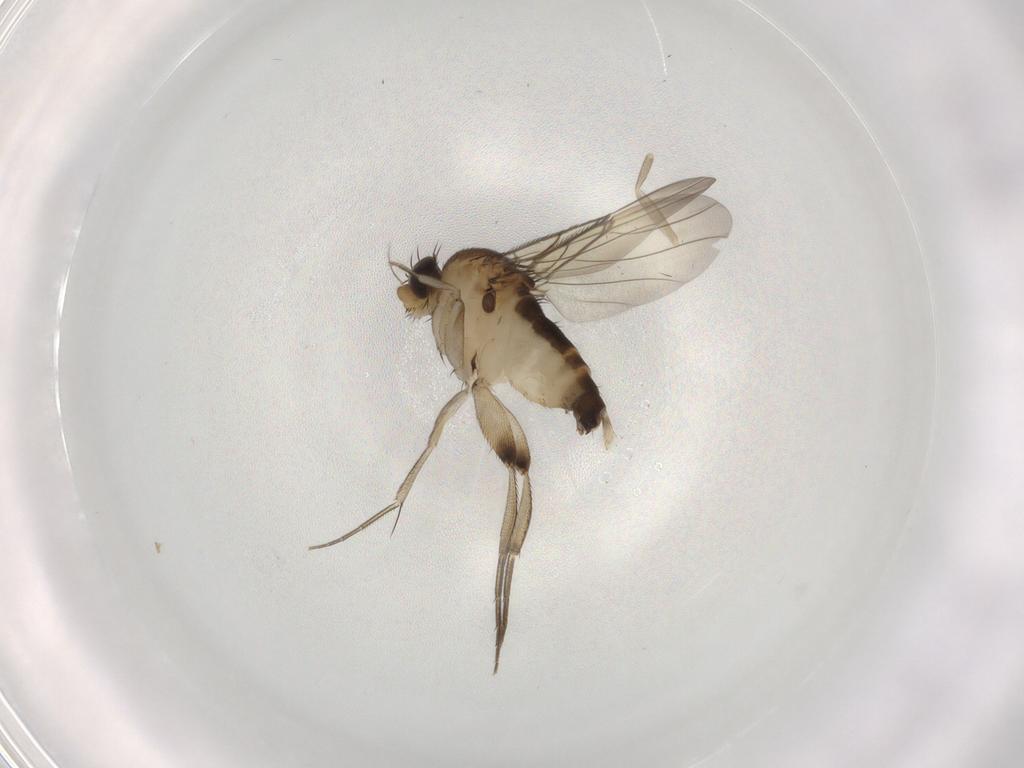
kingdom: Animalia
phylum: Arthropoda
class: Insecta
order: Diptera
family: Phoridae
